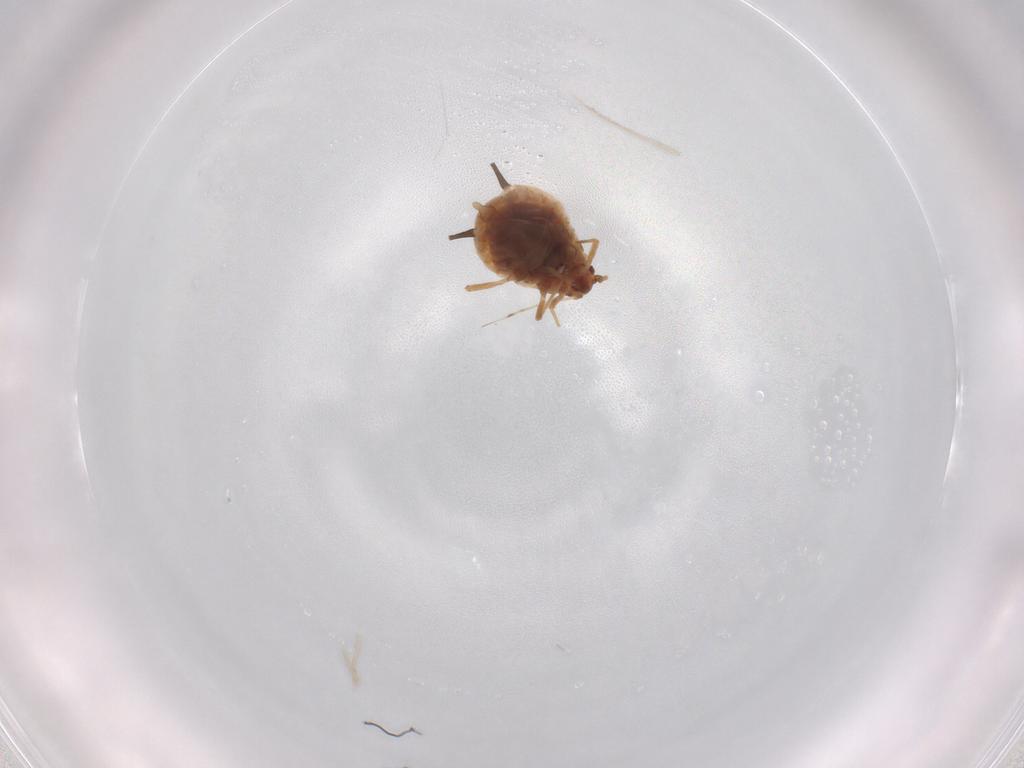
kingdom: Animalia
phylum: Arthropoda
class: Insecta
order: Hemiptera
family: Aphididae
